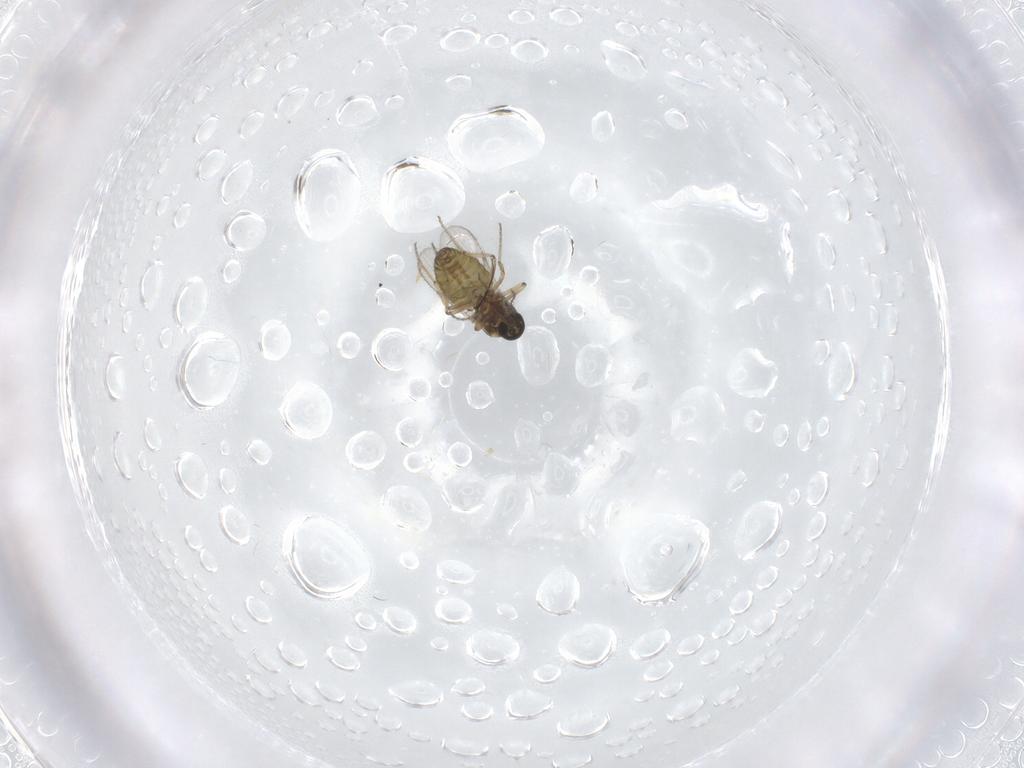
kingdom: Animalia
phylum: Arthropoda
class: Insecta
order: Diptera
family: Ceratopogonidae
